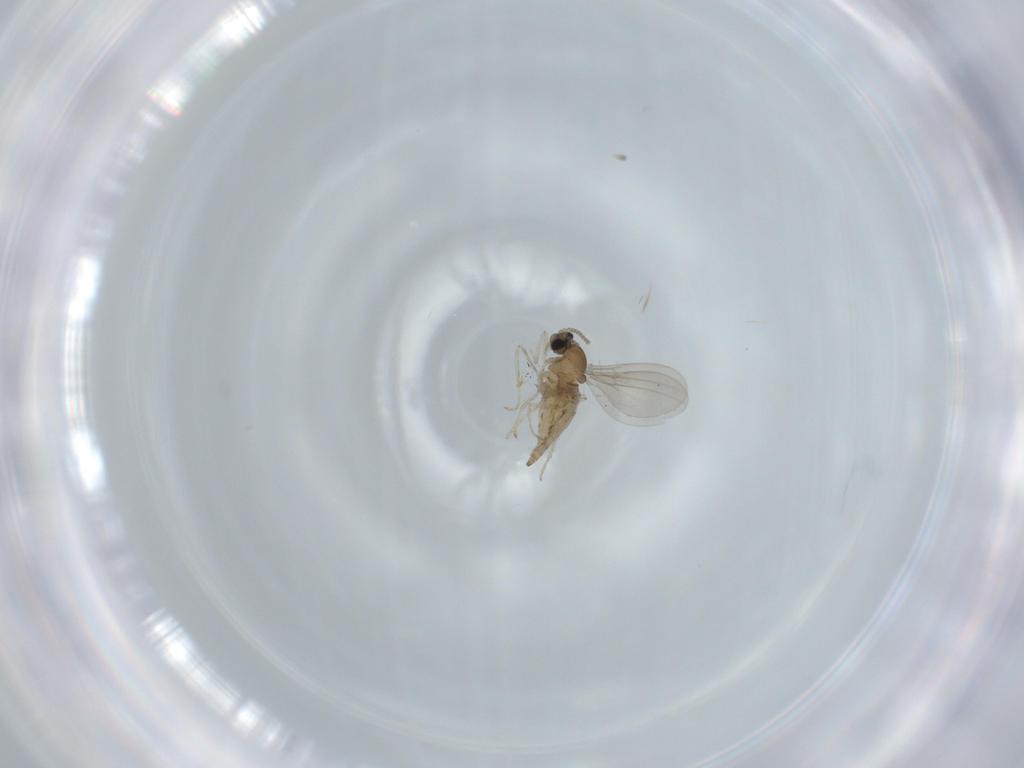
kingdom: Animalia
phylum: Arthropoda
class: Insecta
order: Diptera
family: Cecidomyiidae
